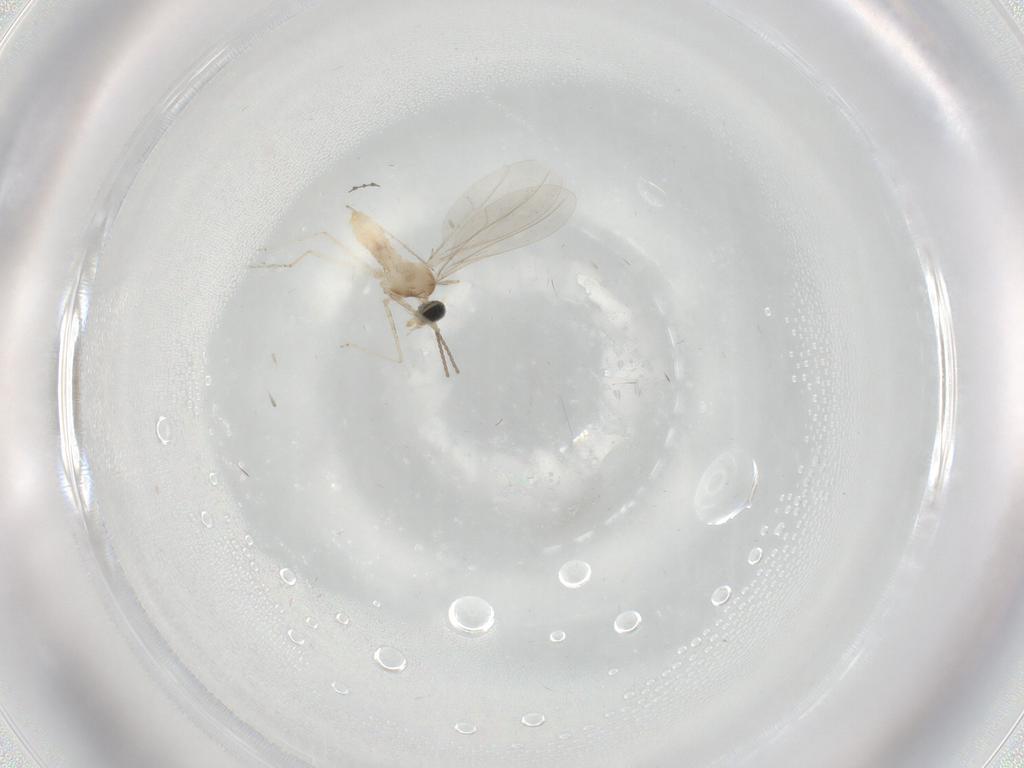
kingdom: Animalia
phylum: Arthropoda
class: Insecta
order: Diptera
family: Cecidomyiidae
